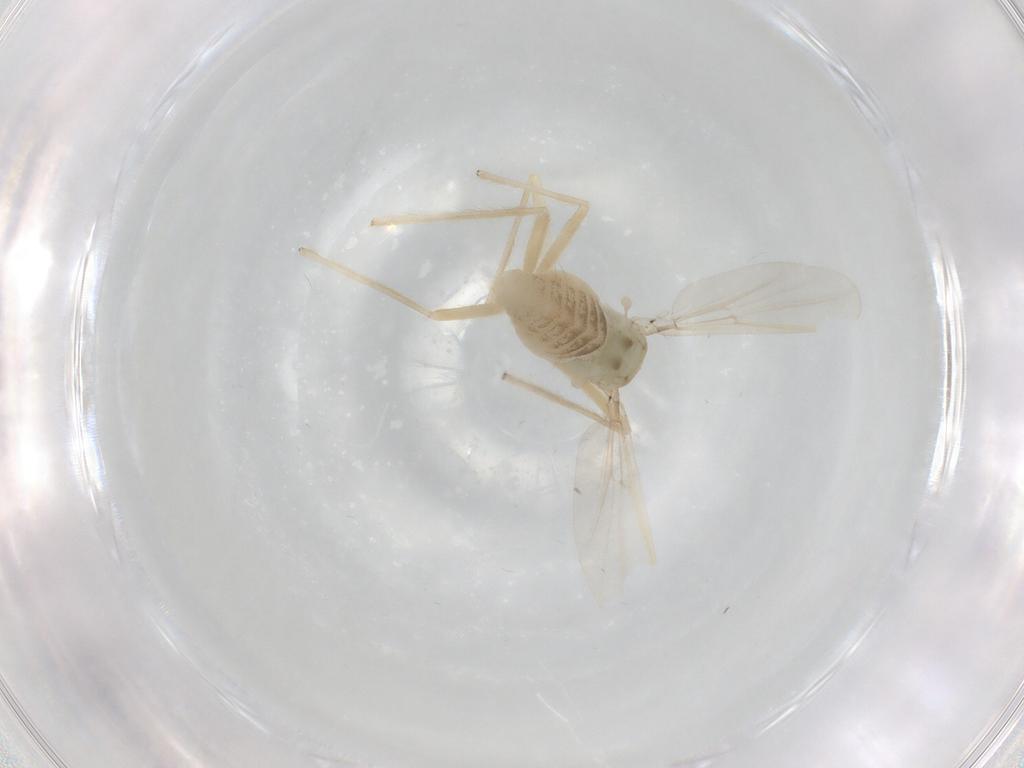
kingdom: Animalia
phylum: Arthropoda
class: Insecta
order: Diptera
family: Chironomidae
